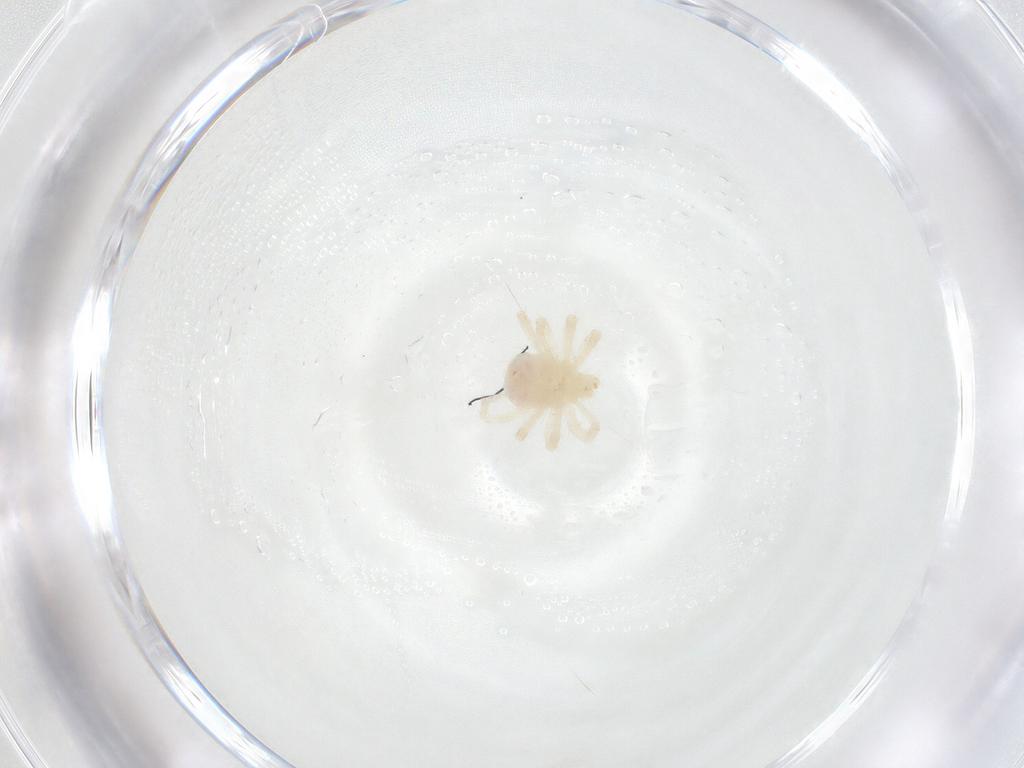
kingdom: Animalia
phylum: Arthropoda
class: Arachnida
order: Trombidiformes
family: Anystidae
